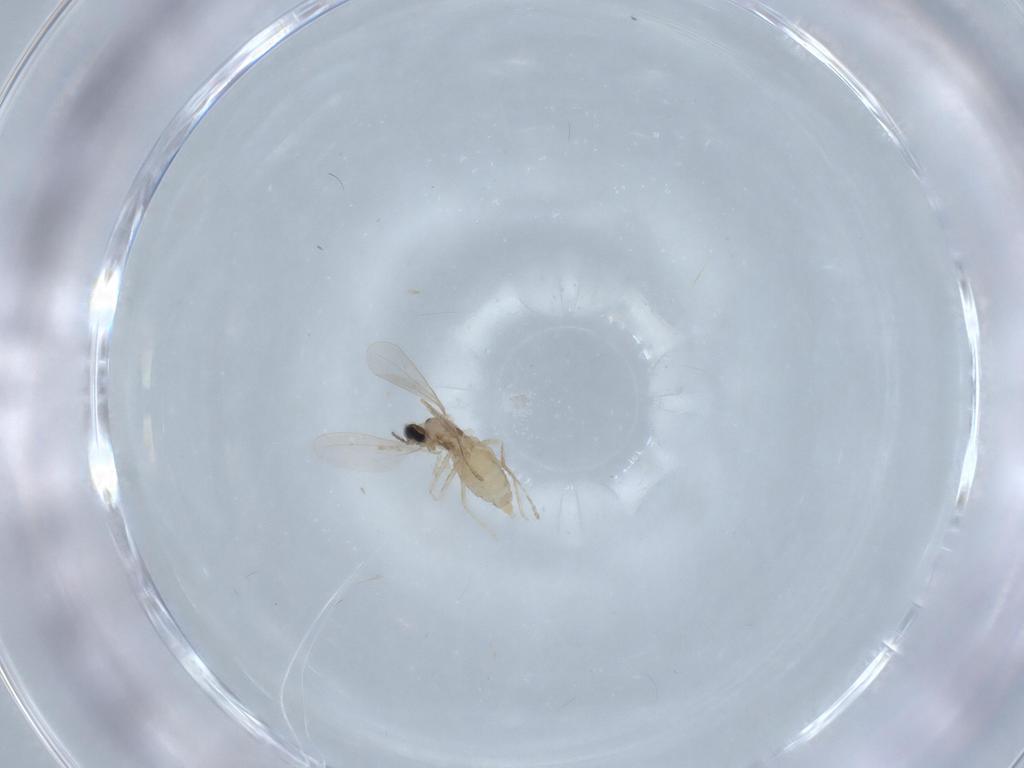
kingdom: Animalia
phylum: Arthropoda
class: Insecta
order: Diptera
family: Cecidomyiidae
